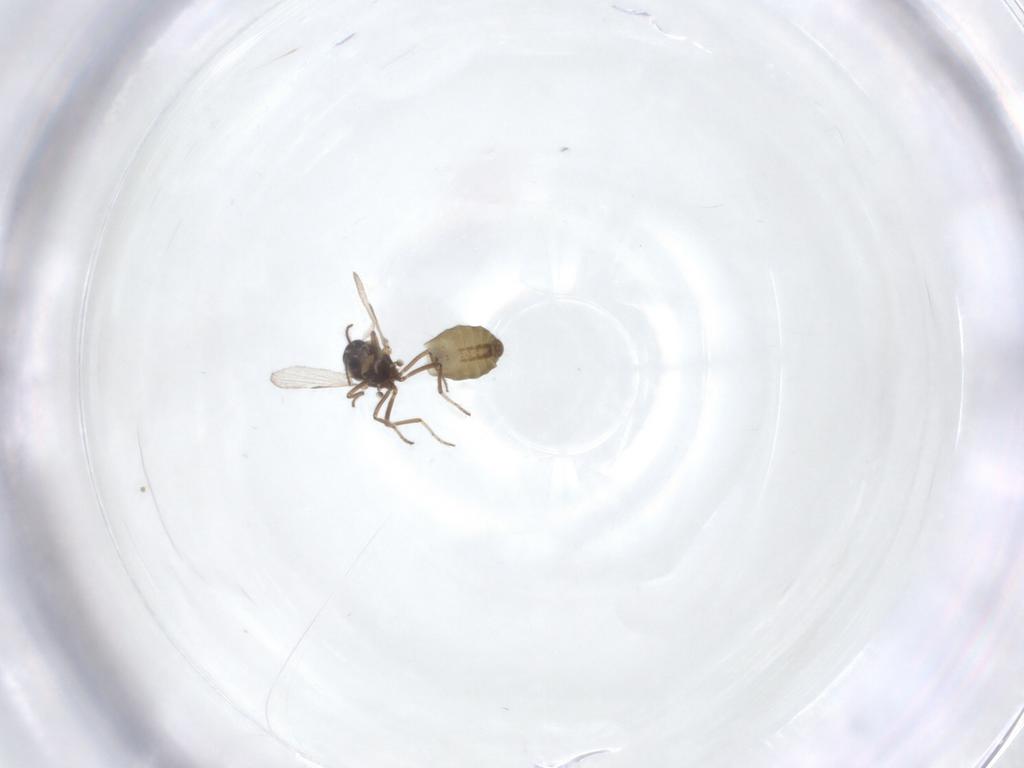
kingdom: Animalia
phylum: Arthropoda
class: Insecta
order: Diptera
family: Ceratopogonidae
